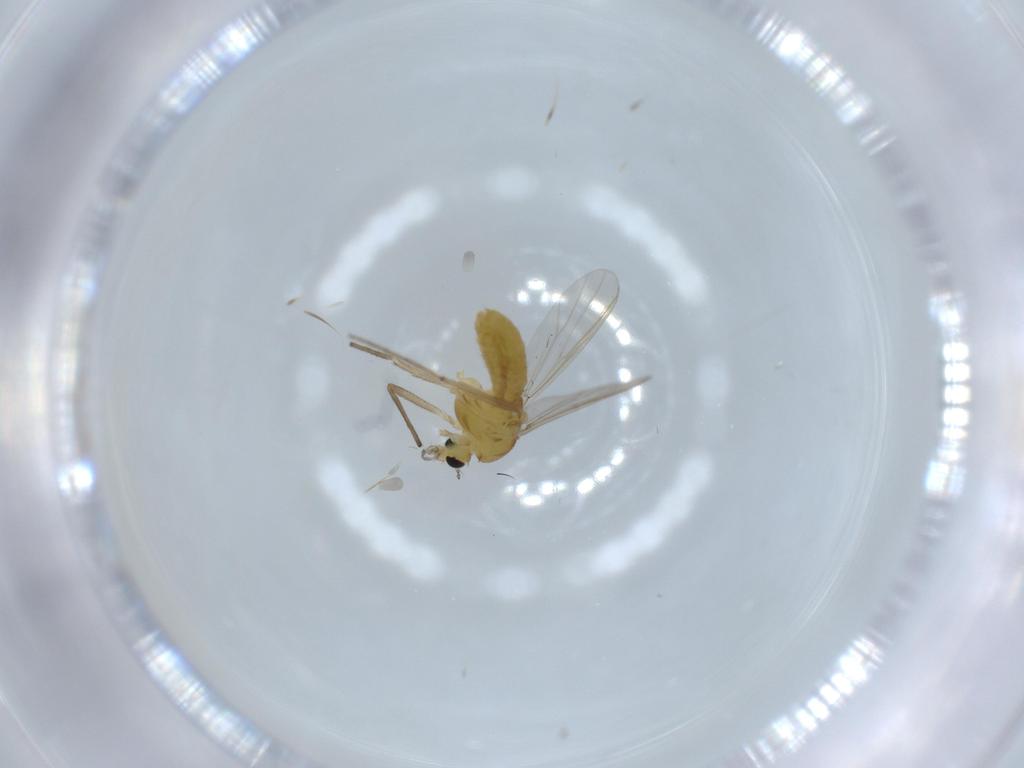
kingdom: Animalia
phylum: Arthropoda
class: Insecta
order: Diptera
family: Chironomidae
